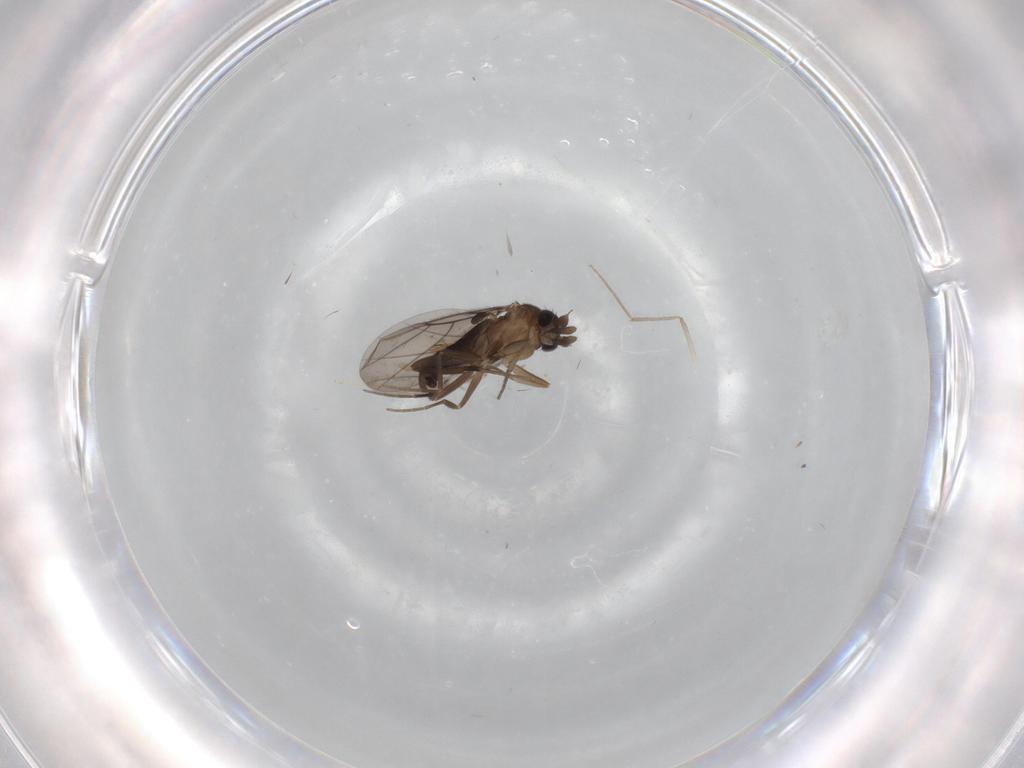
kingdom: Animalia
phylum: Arthropoda
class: Insecta
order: Diptera
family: Phoridae
